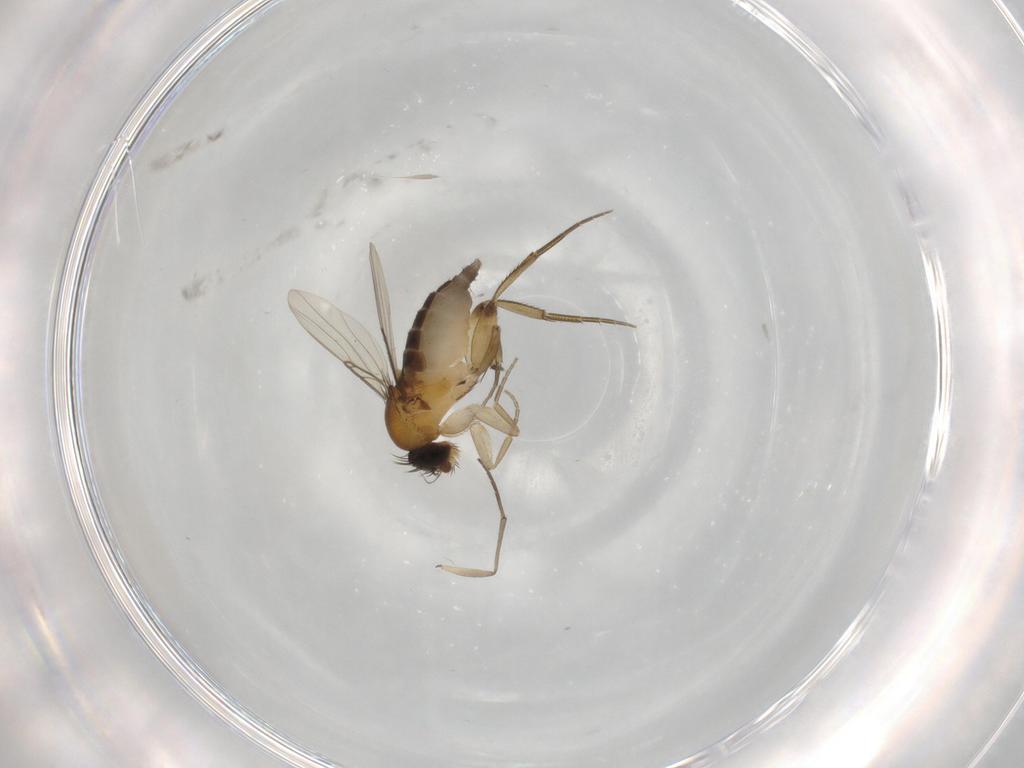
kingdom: Animalia
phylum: Arthropoda
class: Insecta
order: Diptera
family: Phoridae
